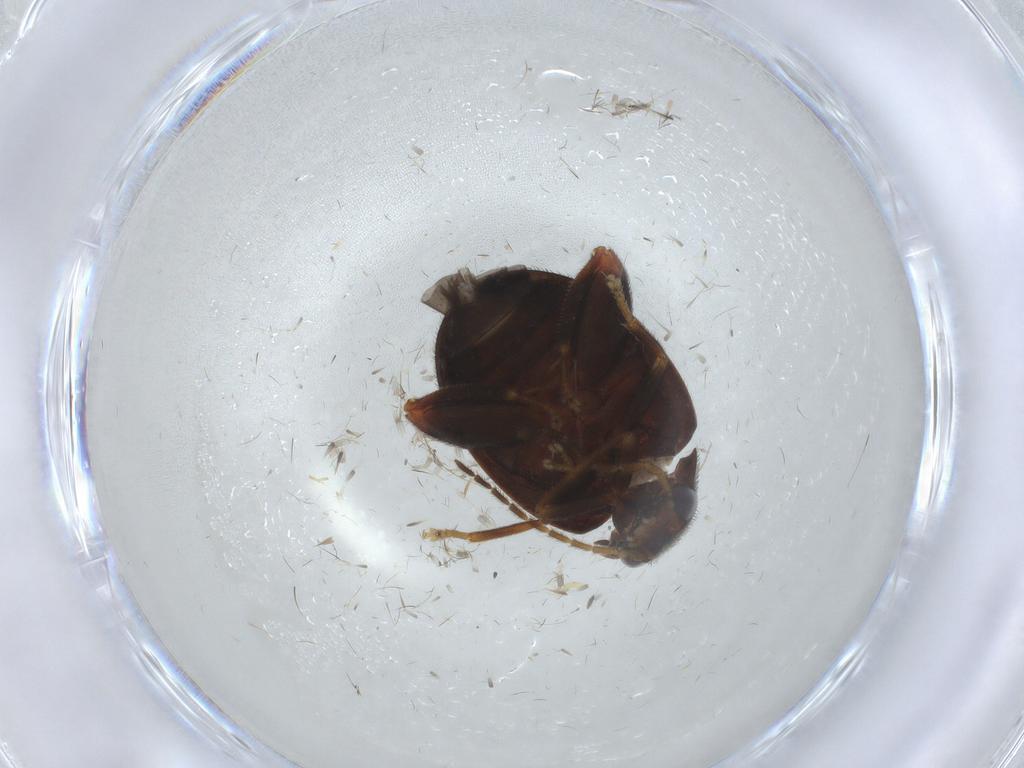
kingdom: Animalia
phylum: Arthropoda
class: Insecta
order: Coleoptera
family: Scirtidae
